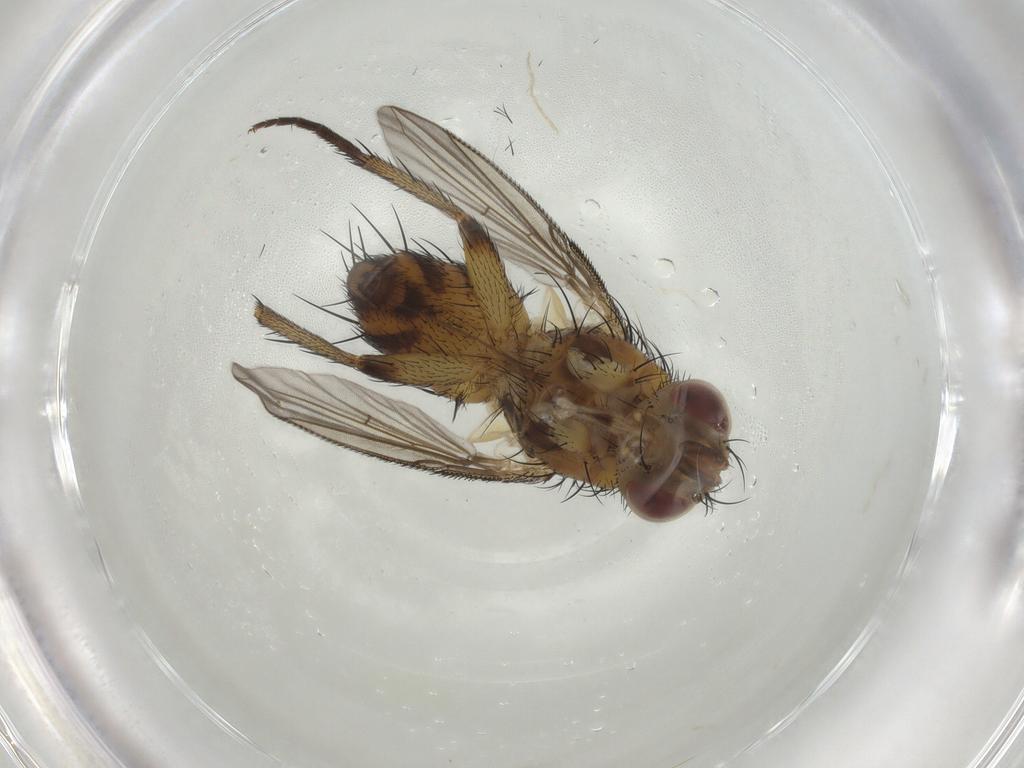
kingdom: Animalia
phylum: Arthropoda
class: Insecta
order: Diptera
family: Tachinidae
